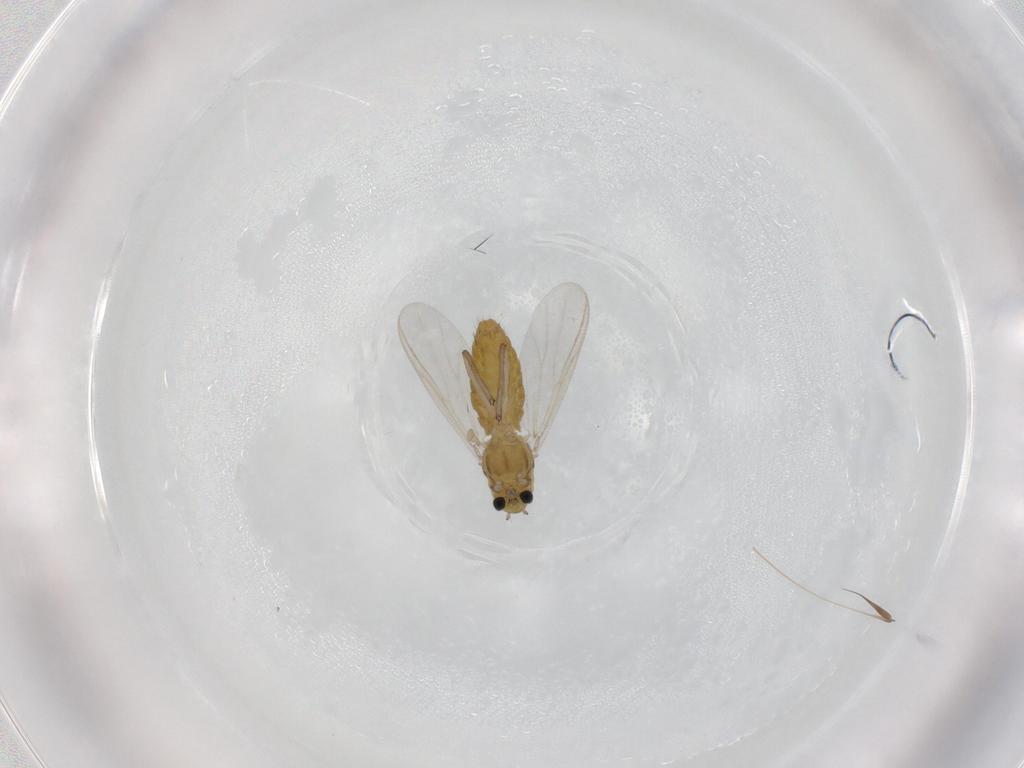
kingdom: Animalia
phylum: Arthropoda
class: Insecta
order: Diptera
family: Chironomidae
